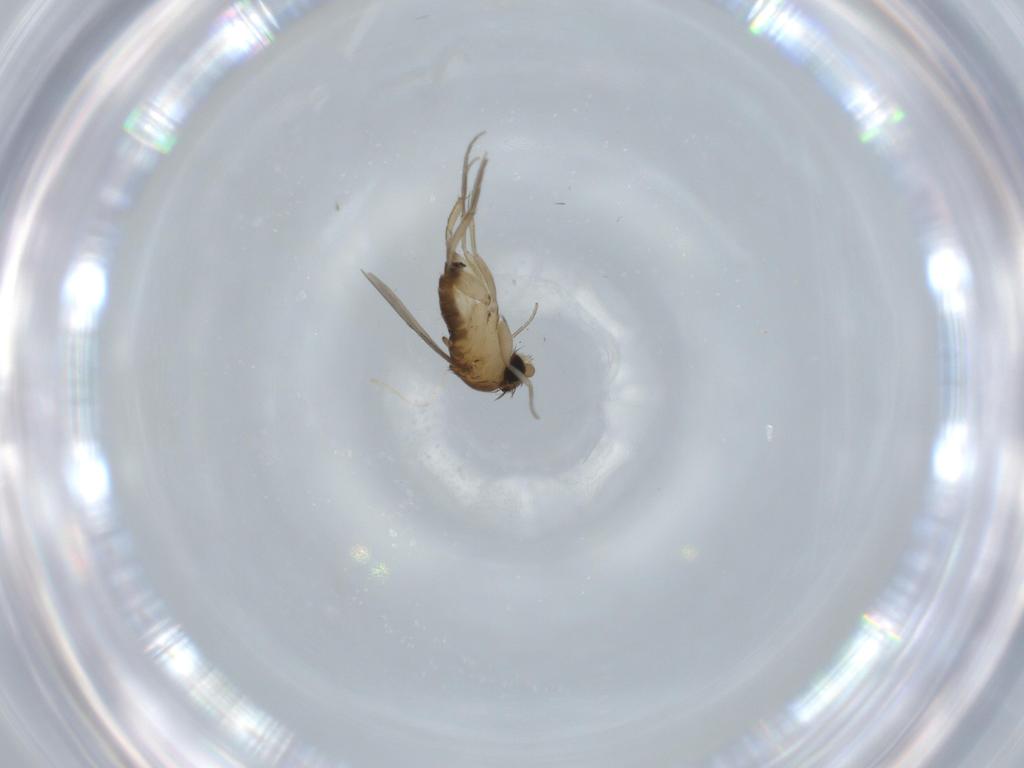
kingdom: Animalia
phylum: Arthropoda
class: Insecta
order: Diptera
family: Phoridae
